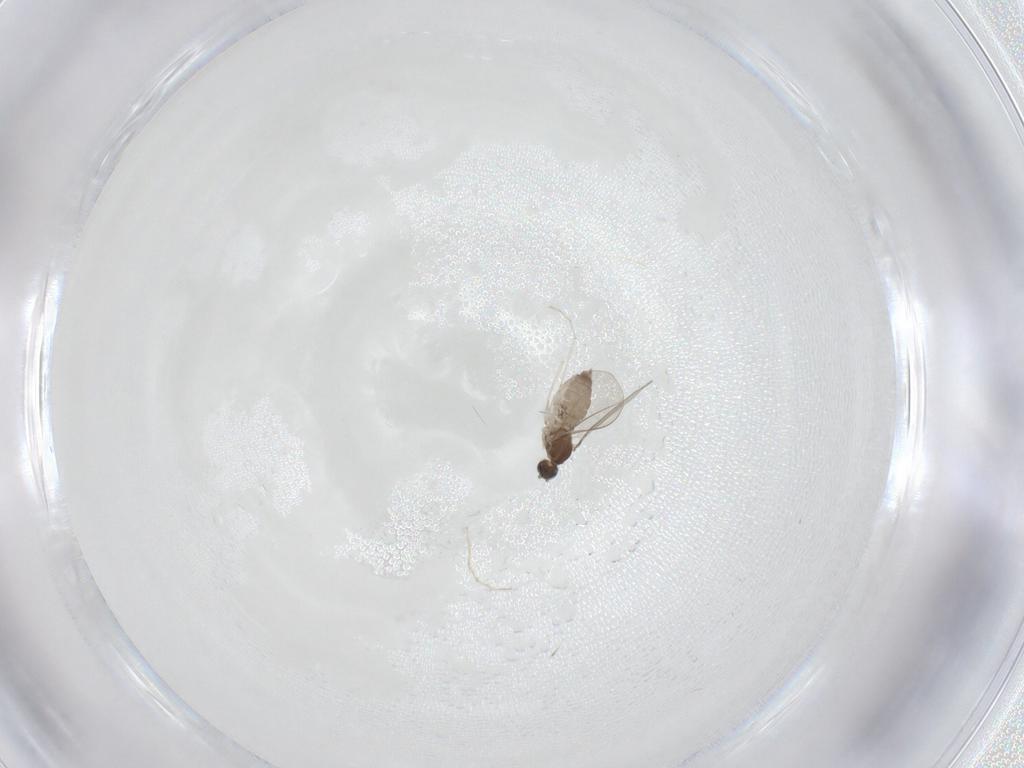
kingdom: Animalia
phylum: Arthropoda
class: Insecta
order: Diptera
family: Cecidomyiidae
